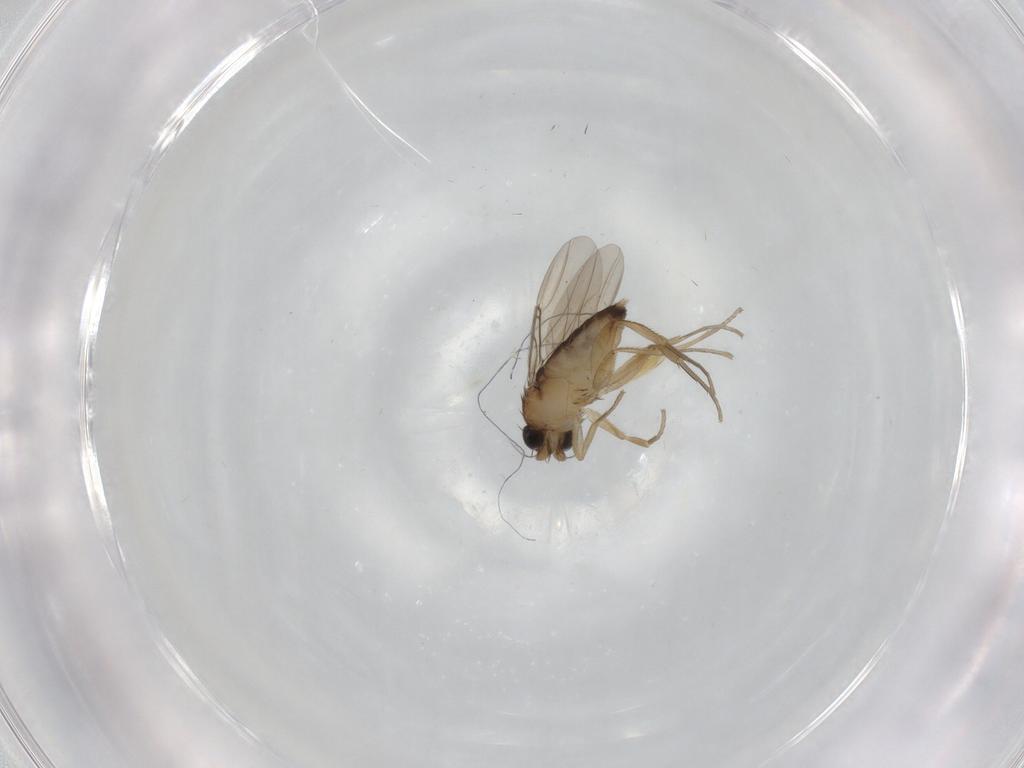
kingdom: Animalia
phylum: Arthropoda
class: Insecta
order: Diptera
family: Phoridae
